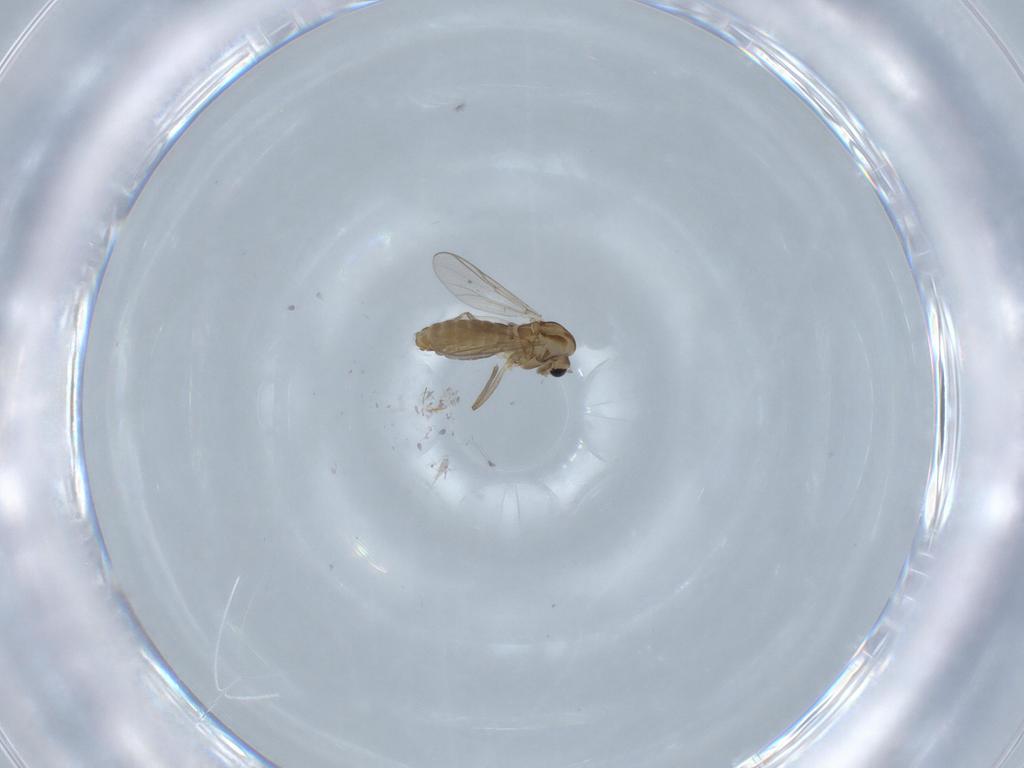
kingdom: Animalia
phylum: Arthropoda
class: Insecta
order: Diptera
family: Chironomidae
